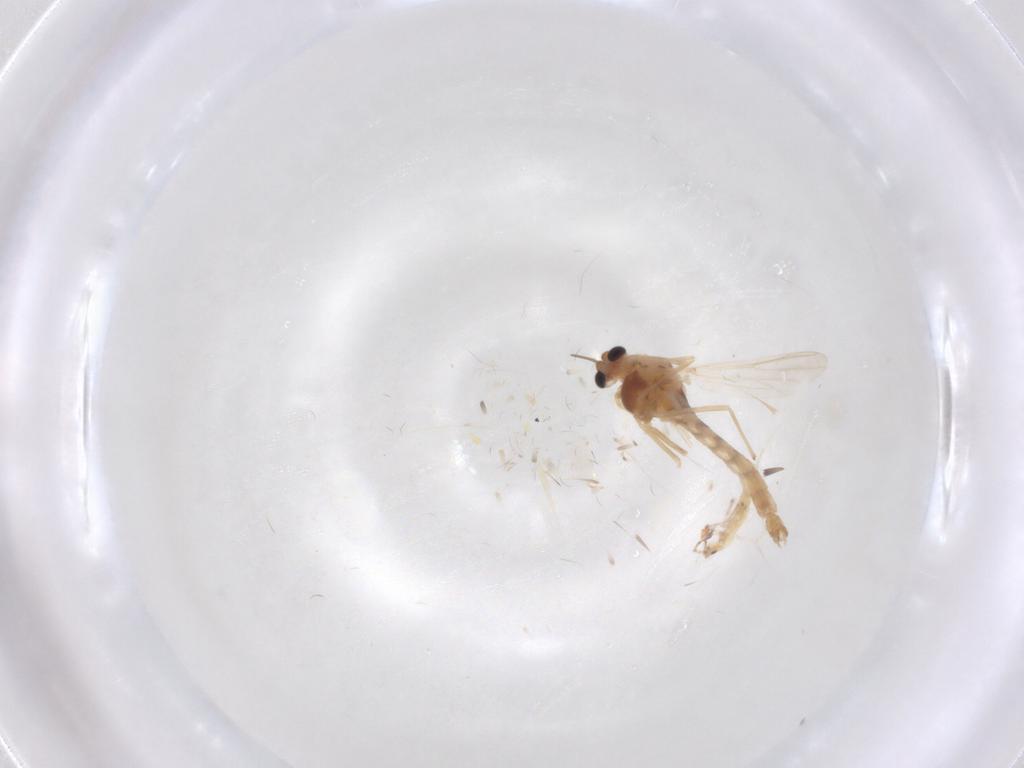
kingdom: Animalia
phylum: Arthropoda
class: Insecta
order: Diptera
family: Chironomidae
